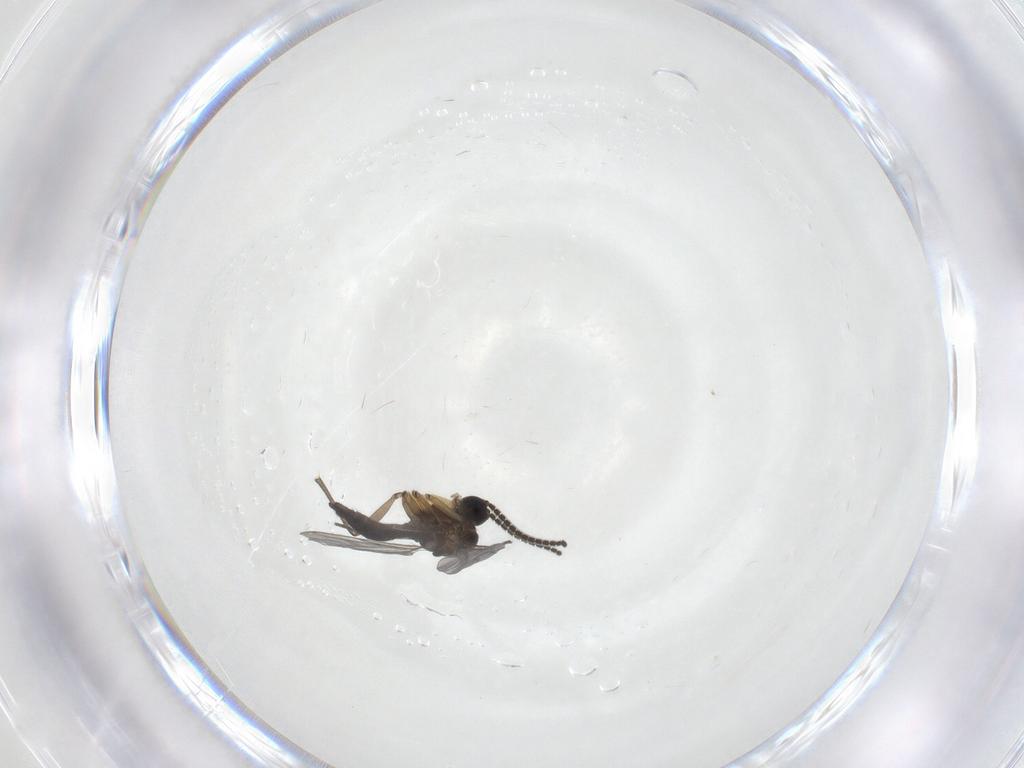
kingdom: Animalia
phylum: Arthropoda
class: Insecta
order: Diptera
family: Sciaridae
